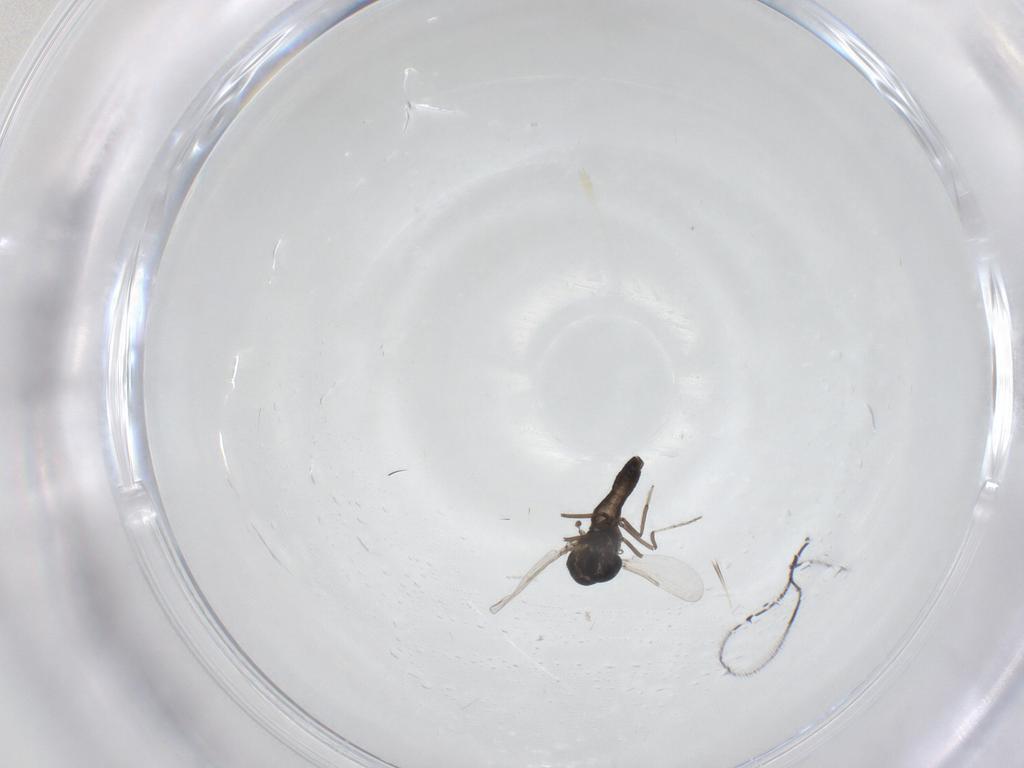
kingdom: Animalia
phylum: Arthropoda
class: Insecta
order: Diptera
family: Ceratopogonidae
